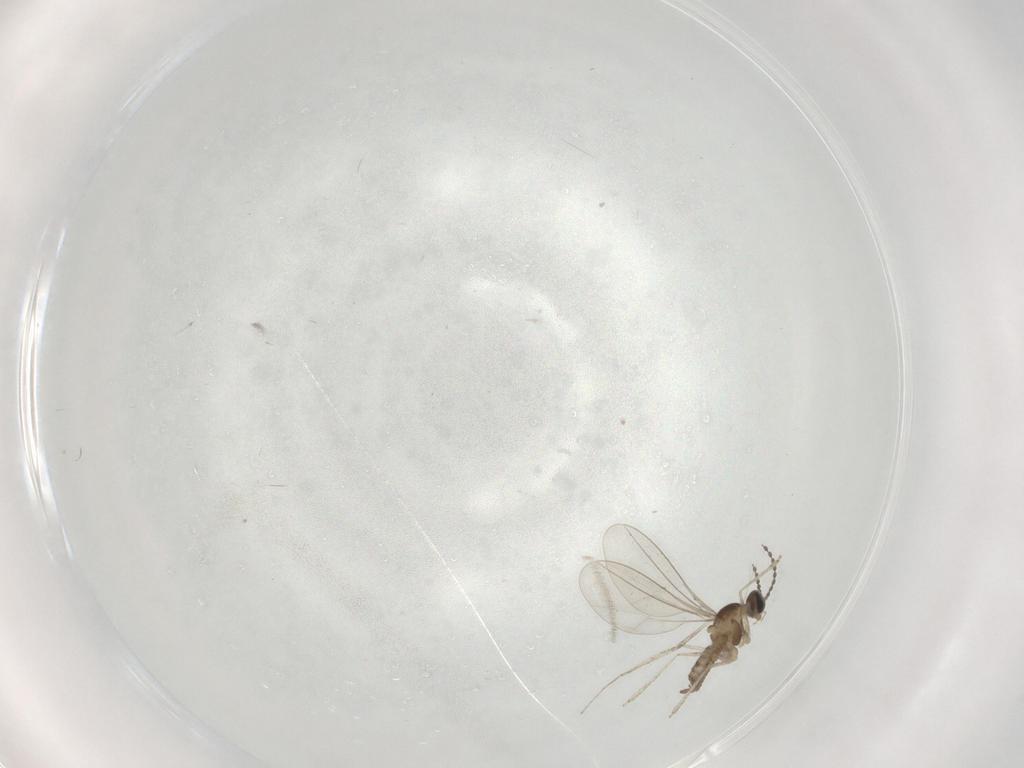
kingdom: Animalia
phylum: Arthropoda
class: Insecta
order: Diptera
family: Cecidomyiidae
